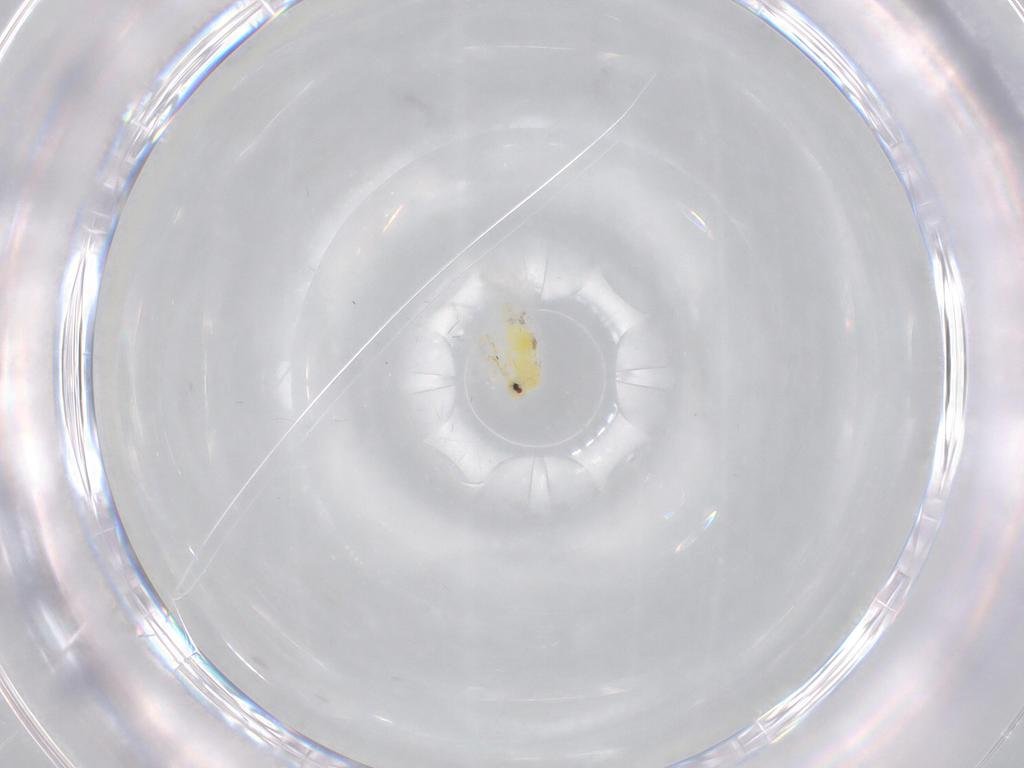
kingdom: Animalia
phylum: Arthropoda
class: Insecta
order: Hemiptera
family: Aleyrodidae
